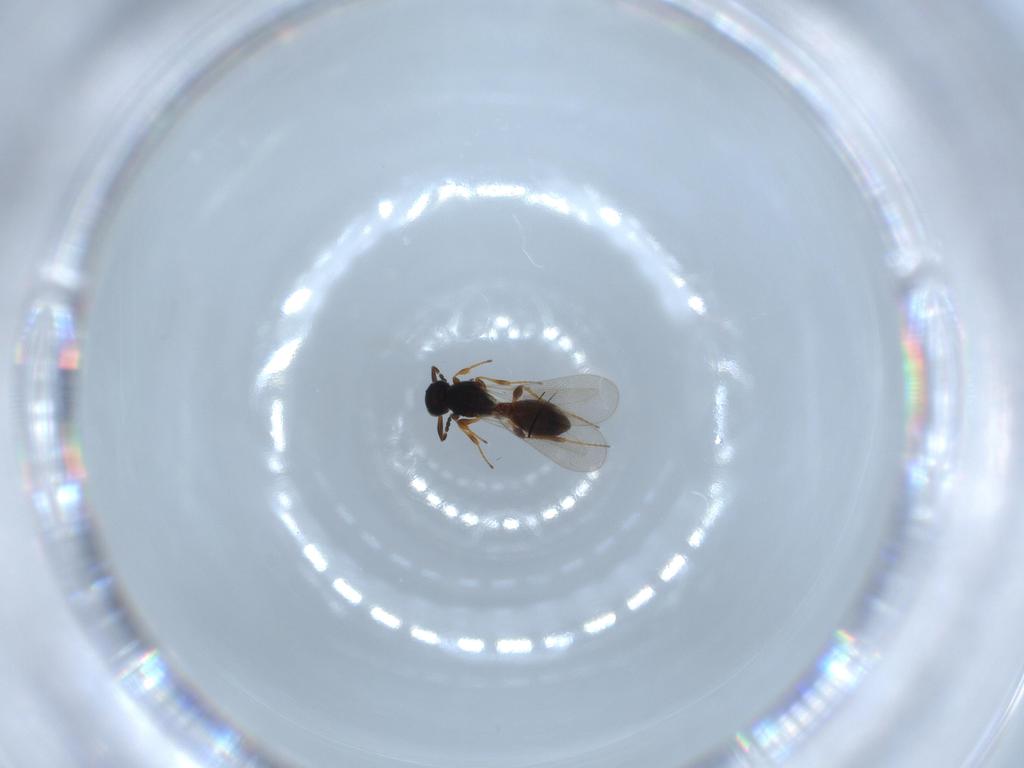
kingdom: Animalia
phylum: Arthropoda
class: Insecta
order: Hymenoptera
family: Platygastridae
